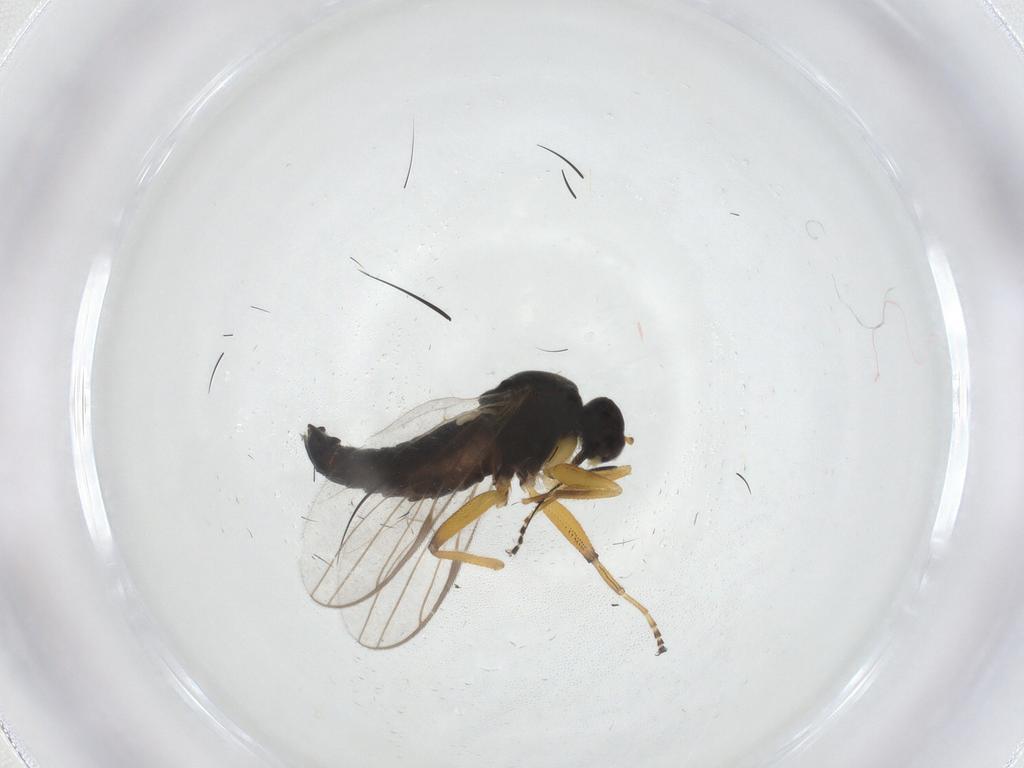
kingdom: Animalia
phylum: Arthropoda
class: Insecta
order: Diptera
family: Hybotidae
